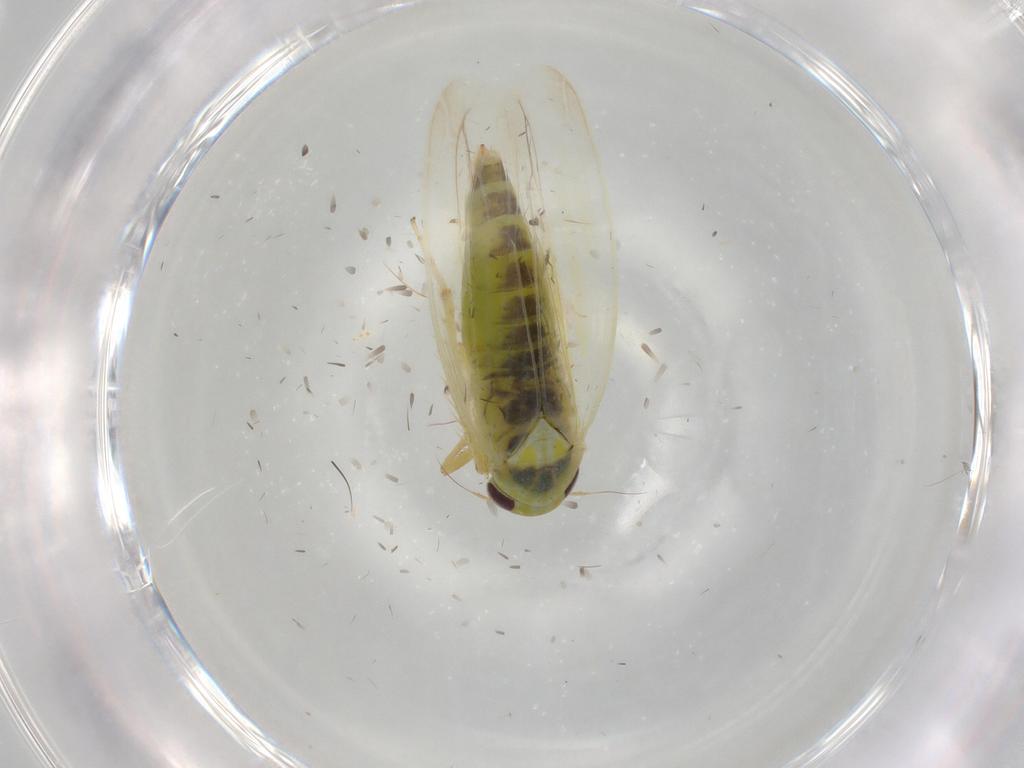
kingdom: Animalia
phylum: Arthropoda
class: Insecta
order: Hemiptera
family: Cicadellidae
